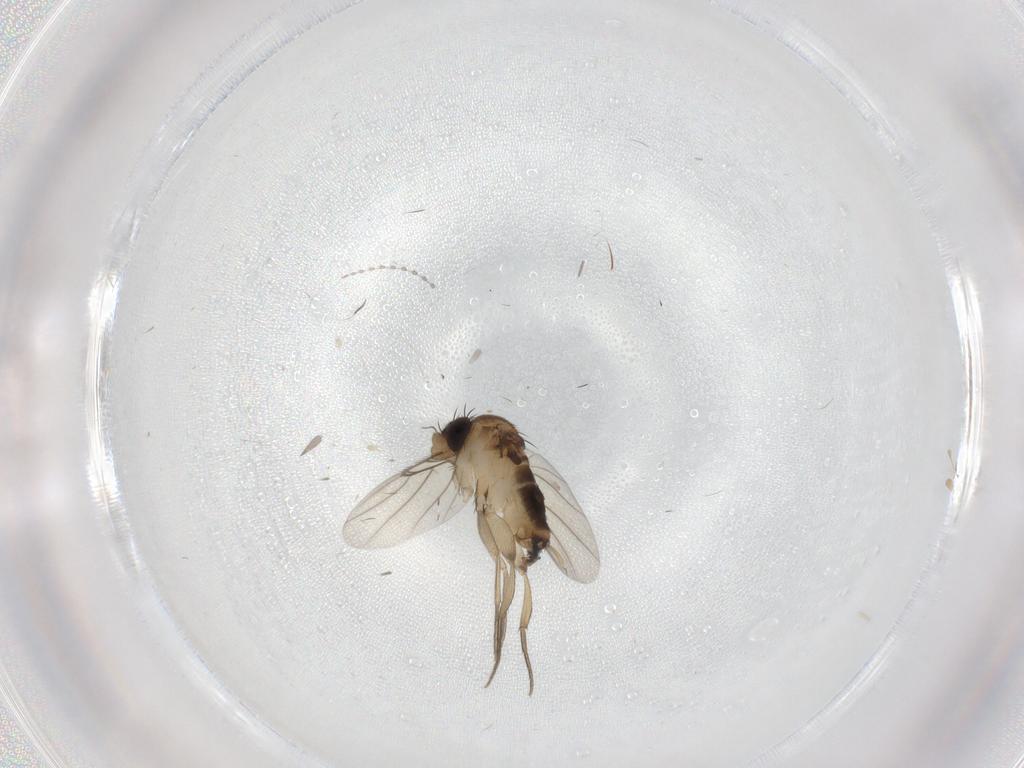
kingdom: Animalia
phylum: Arthropoda
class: Insecta
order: Diptera
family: Cecidomyiidae
